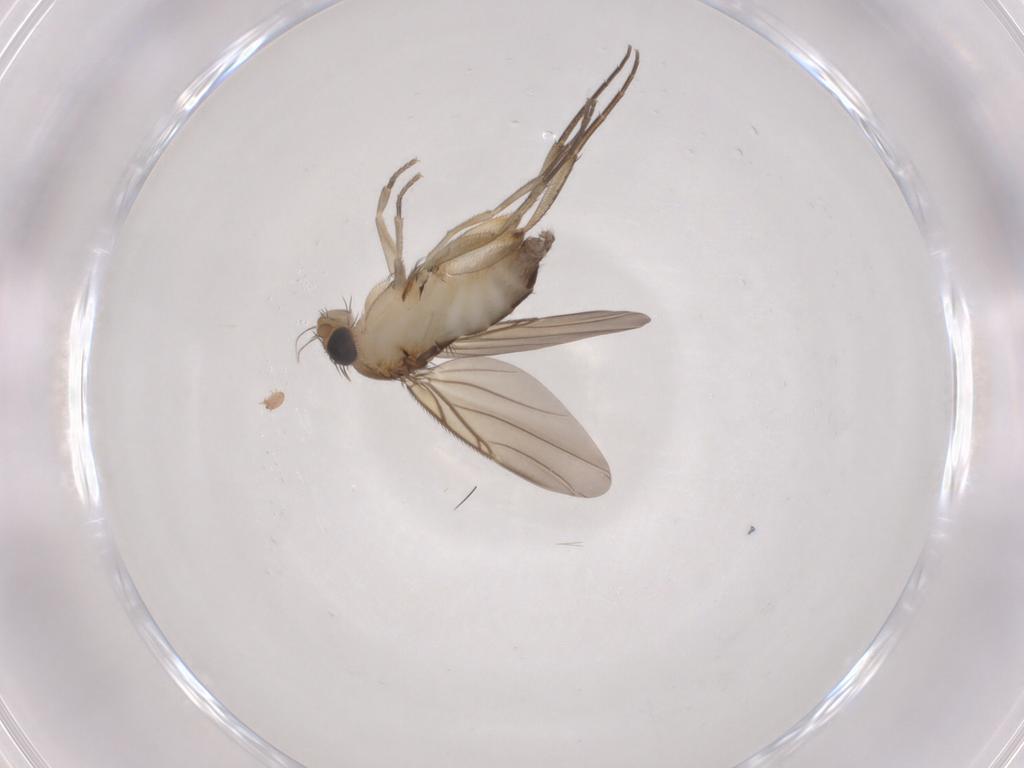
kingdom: Animalia
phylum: Arthropoda
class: Insecta
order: Diptera
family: Phoridae
